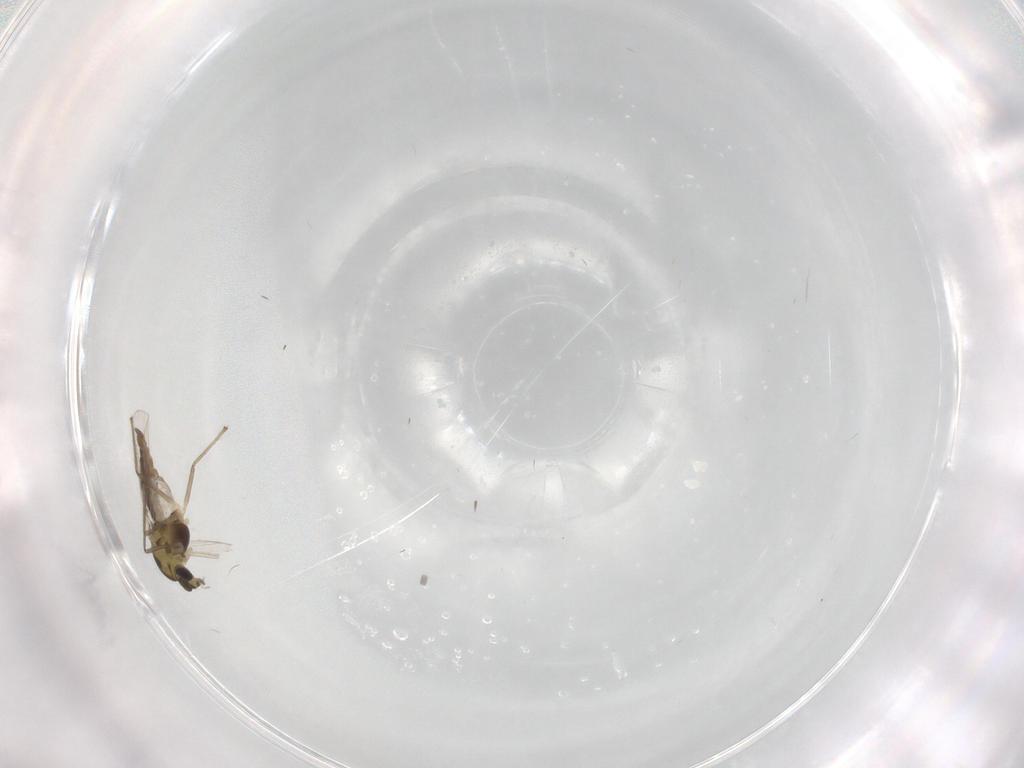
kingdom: Animalia
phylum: Arthropoda
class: Insecta
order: Diptera
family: Chironomidae
